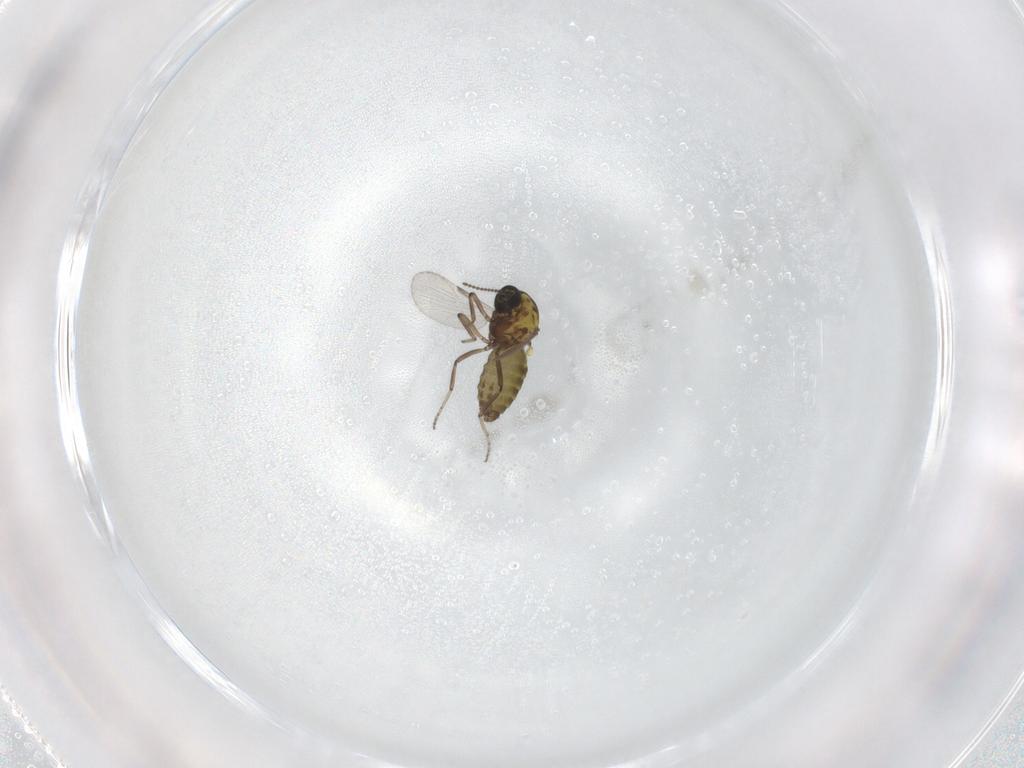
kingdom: Animalia
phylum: Arthropoda
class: Insecta
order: Diptera
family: Ceratopogonidae
